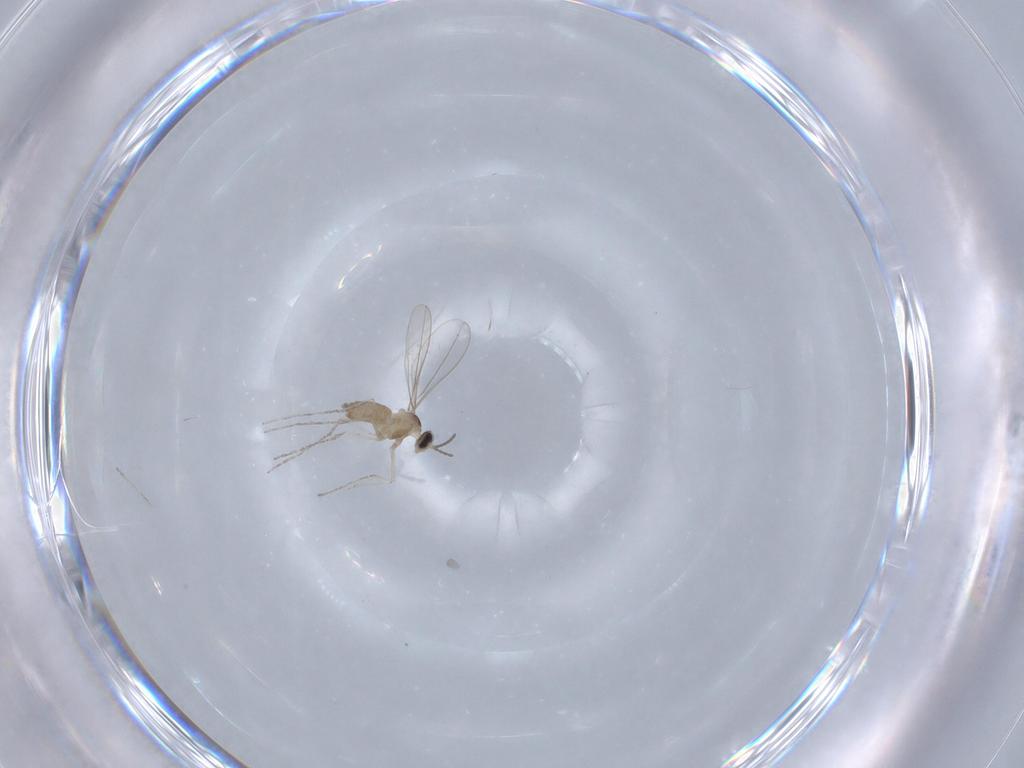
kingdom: Animalia
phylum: Arthropoda
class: Insecta
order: Diptera
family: Cecidomyiidae
